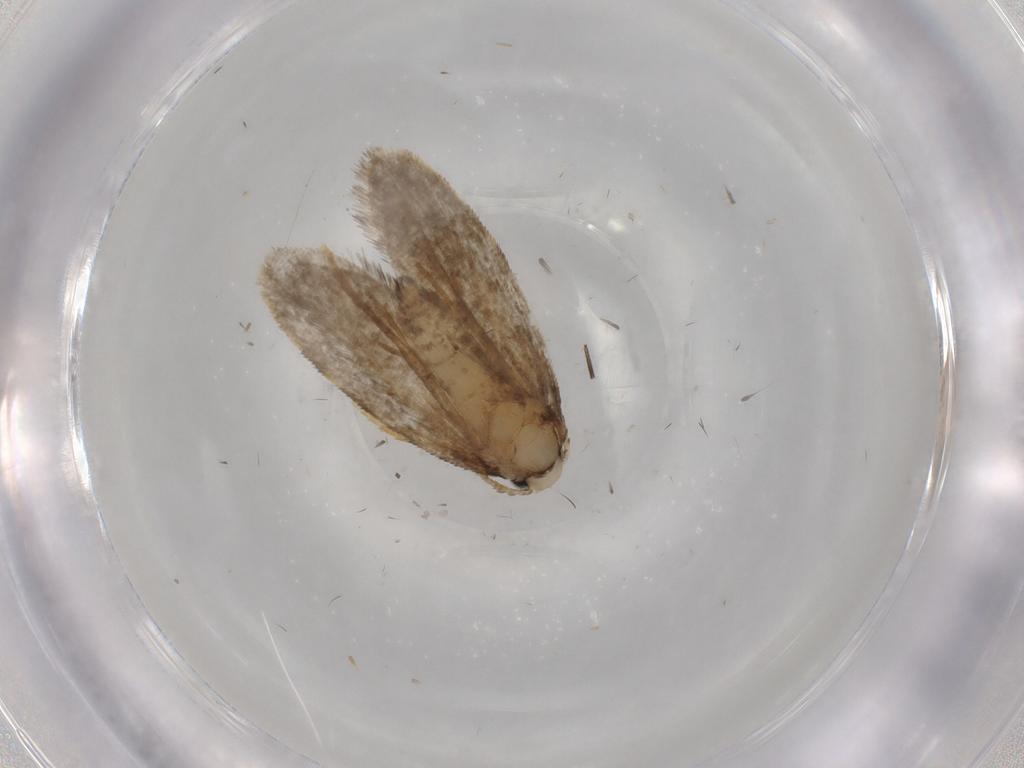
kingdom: Animalia
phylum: Arthropoda
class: Insecta
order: Lepidoptera
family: Psychidae
